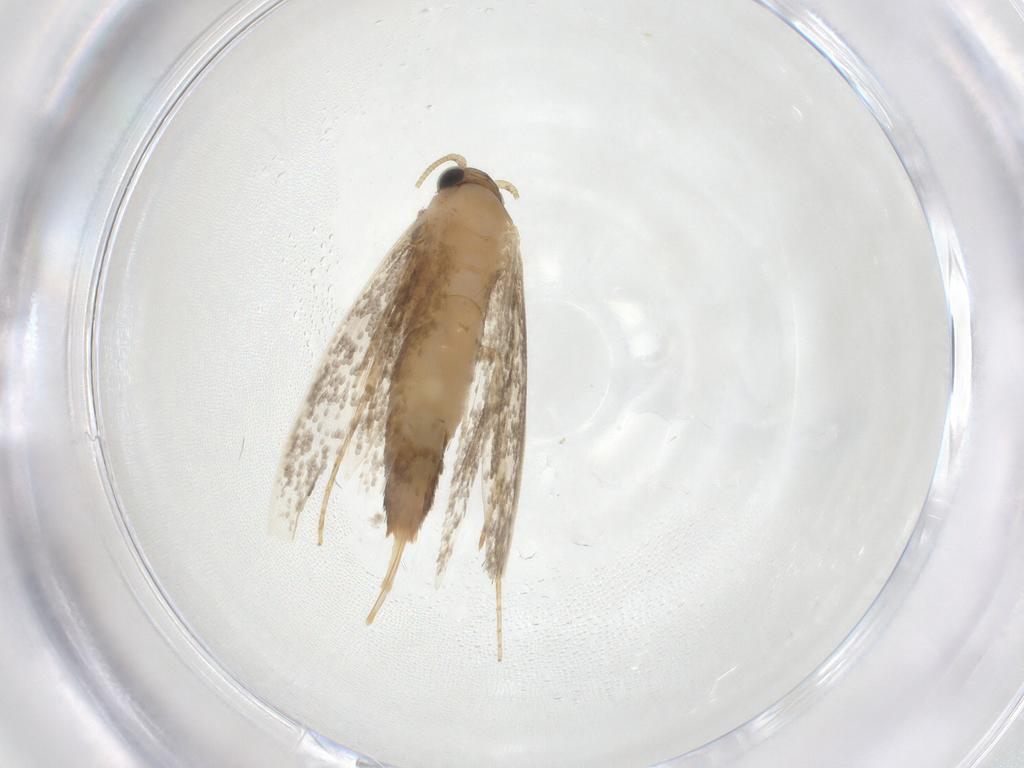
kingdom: Animalia
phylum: Arthropoda
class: Insecta
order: Lepidoptera
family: Tineidae
